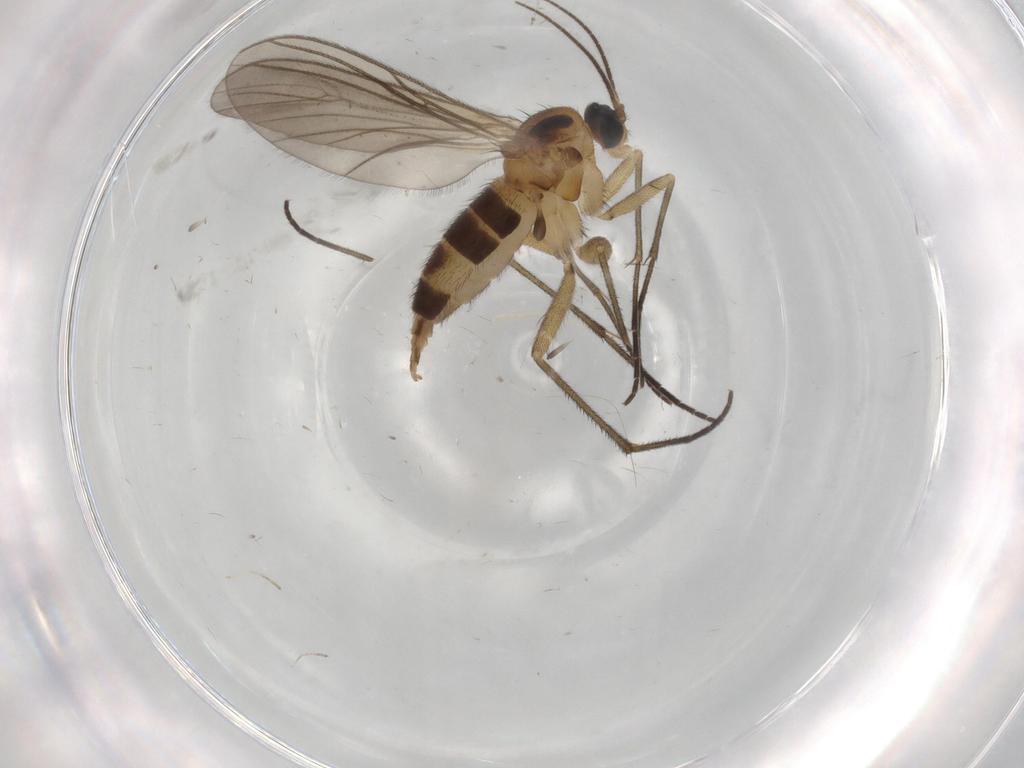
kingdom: Animalia
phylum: Arthropoda
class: Insecta
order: Diptera
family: Cecidomyiidae
